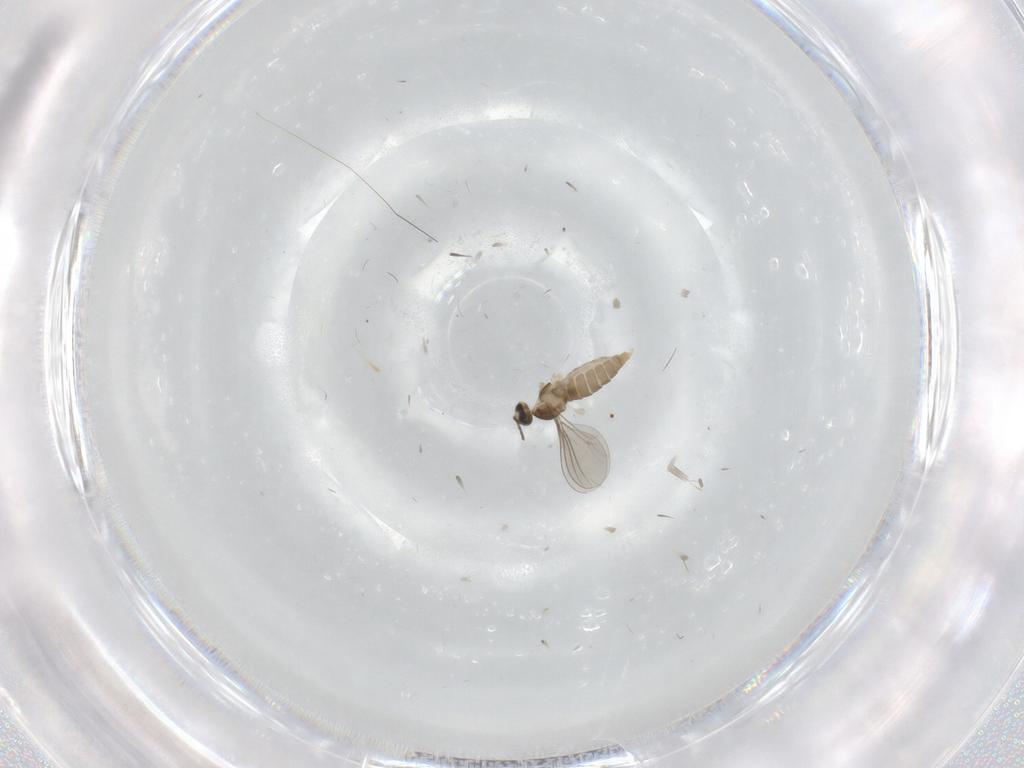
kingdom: Animalia
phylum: Arthropoda
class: Insecta
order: Diptera
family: Cecidomyiidae
